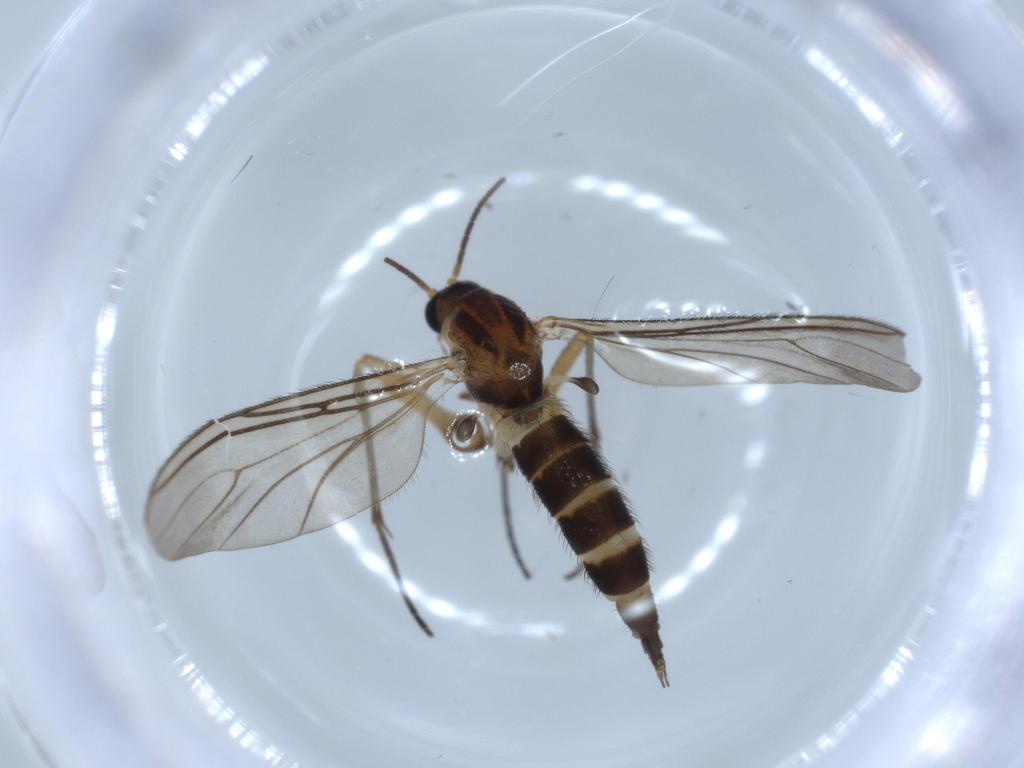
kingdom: Animalia
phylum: Arthropoda
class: Insecta
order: Diptera
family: Sciaridae
